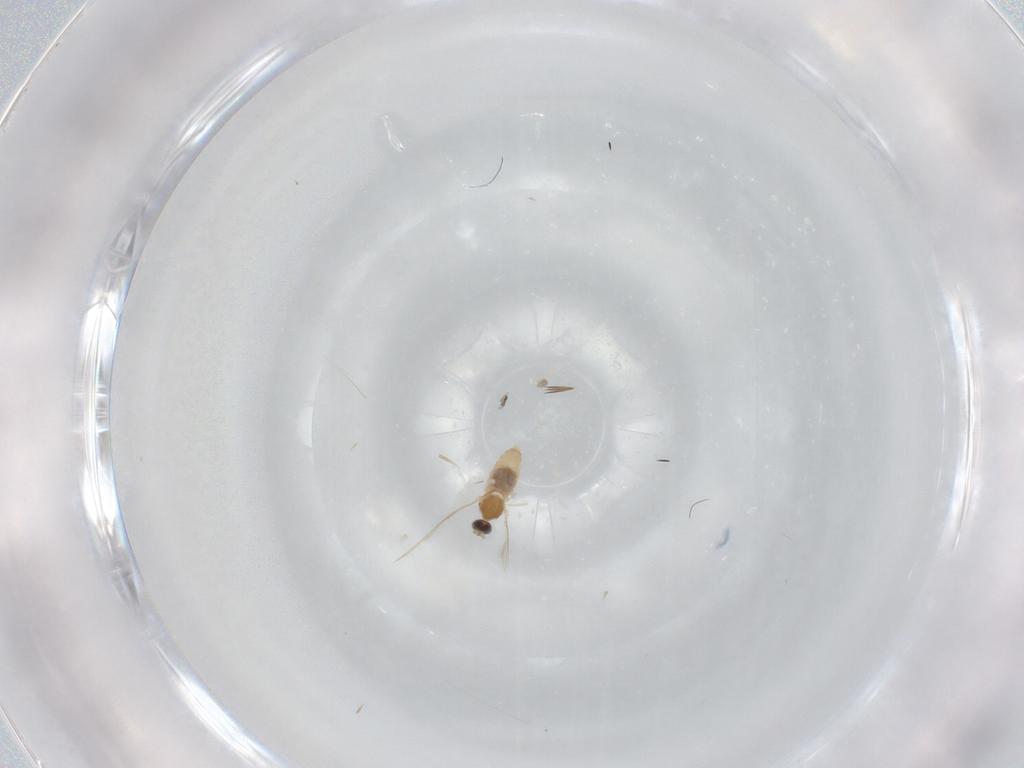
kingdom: Animalia
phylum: Arthropoda
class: Insecta
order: Diptera
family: Cecidomyiidae
